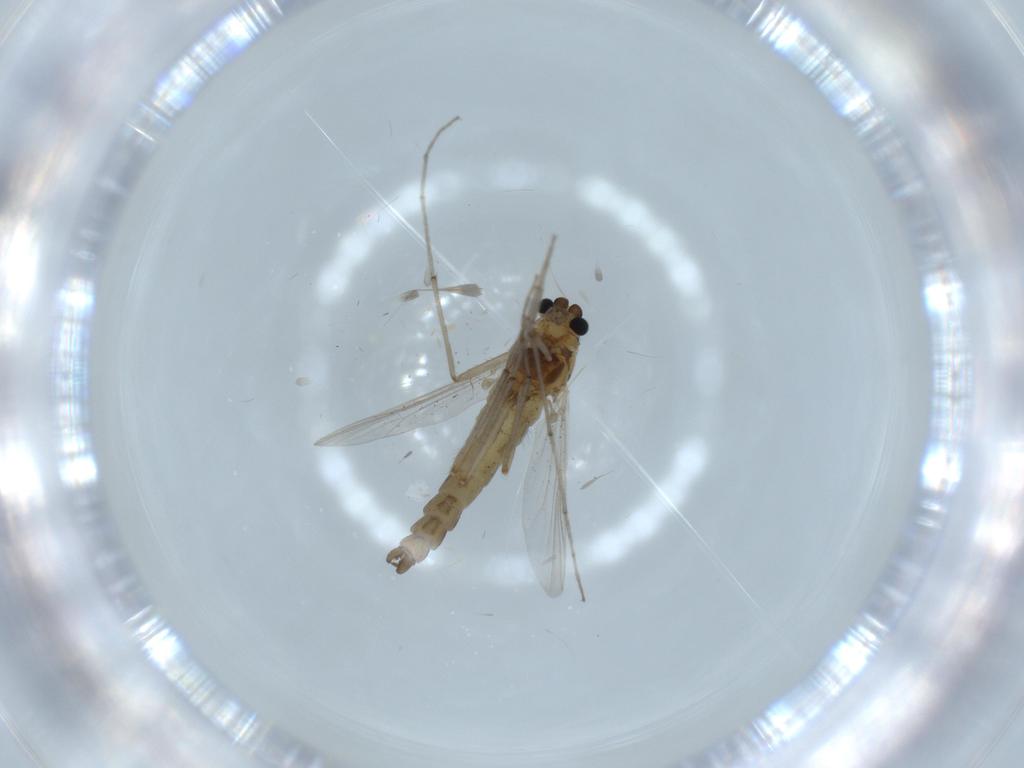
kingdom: Animalia
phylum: Arthropoda
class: Insecta
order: Diptera
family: Chironomidae
